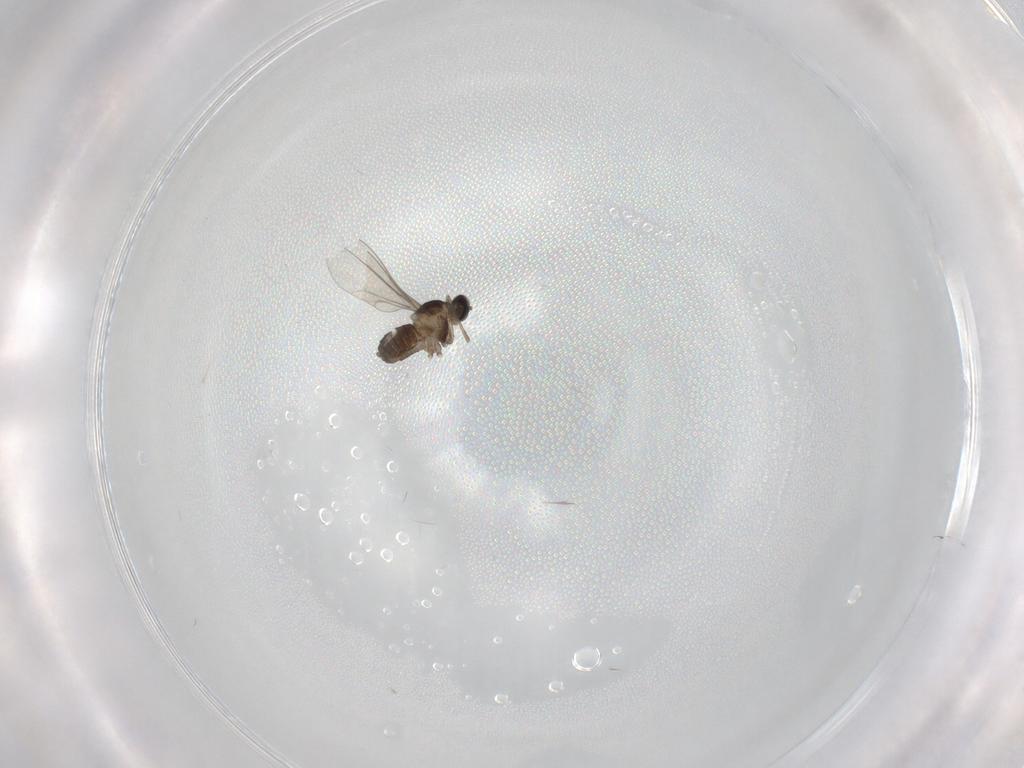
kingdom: Animalia
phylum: Arthropoda
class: Insecta
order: Diptera
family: Cecidomyiidae
